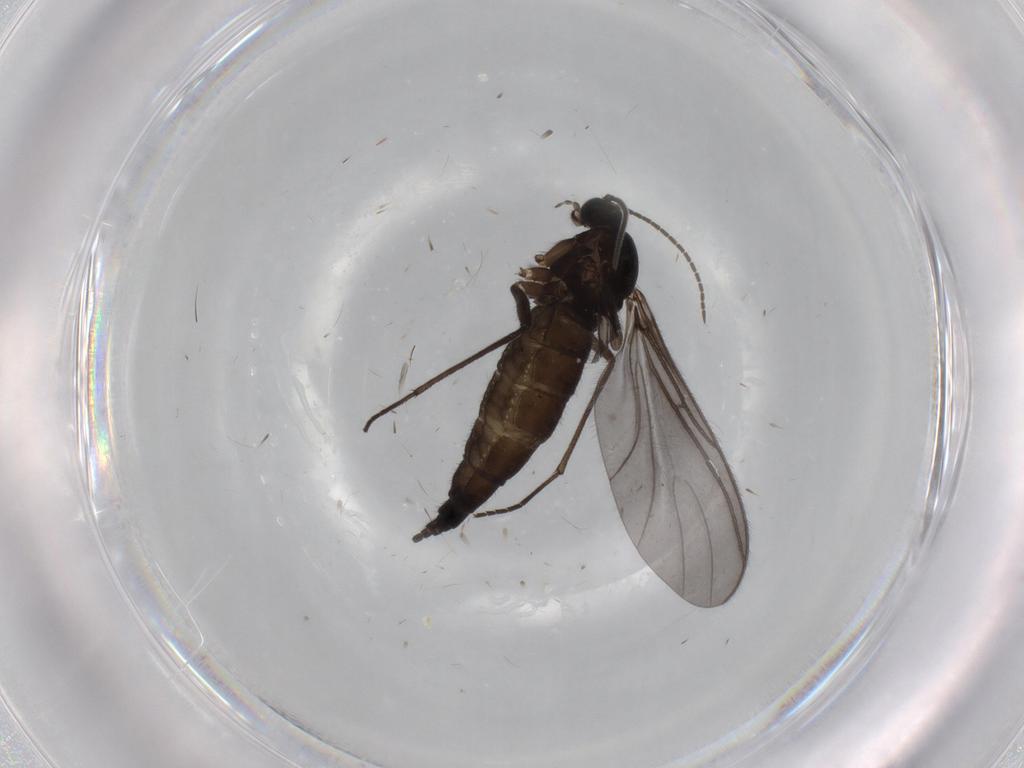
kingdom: Animalia
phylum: Arthropoda
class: Insecta
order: Diptera
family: Sciaridae
